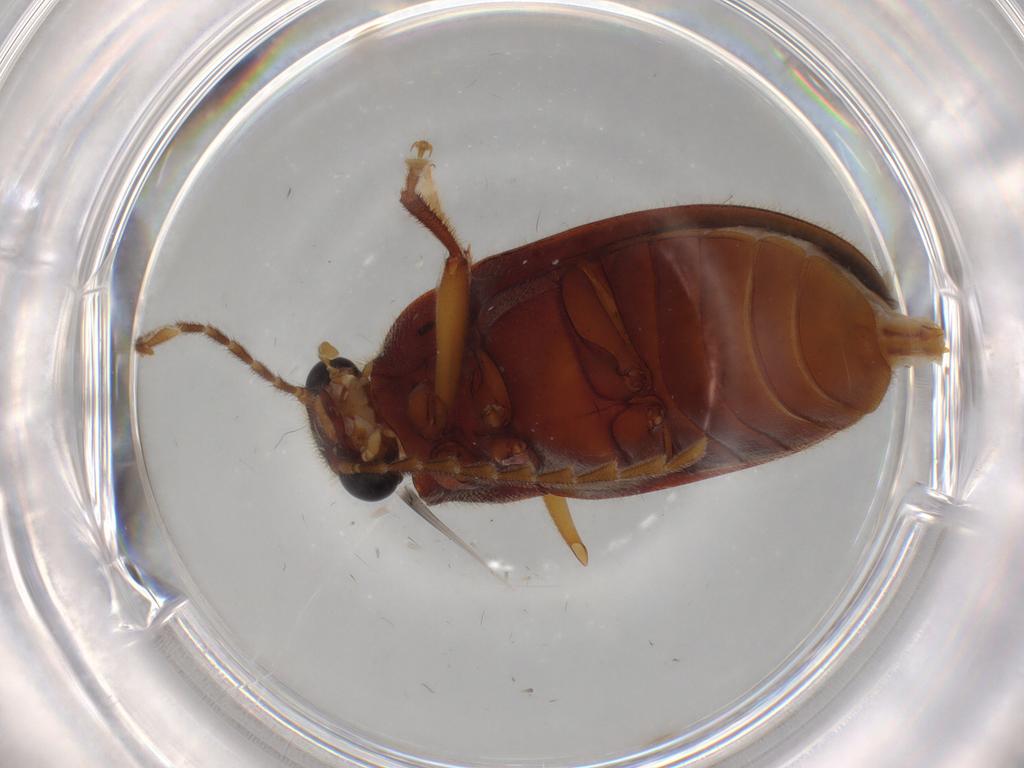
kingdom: Animalia
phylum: Arthropoda
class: Insecta
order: Coleoptera
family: Ptilodactylidae
